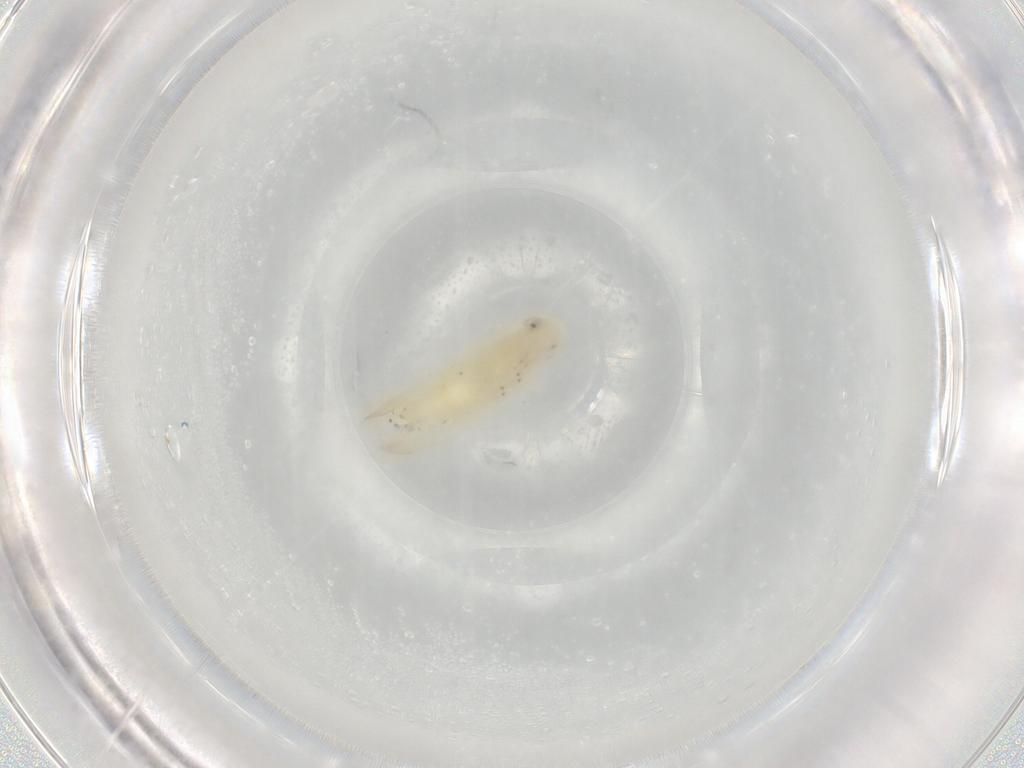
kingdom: Animalia
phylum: Arthropoda
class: Insecta
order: Hemiptera
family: Cicadellidae
